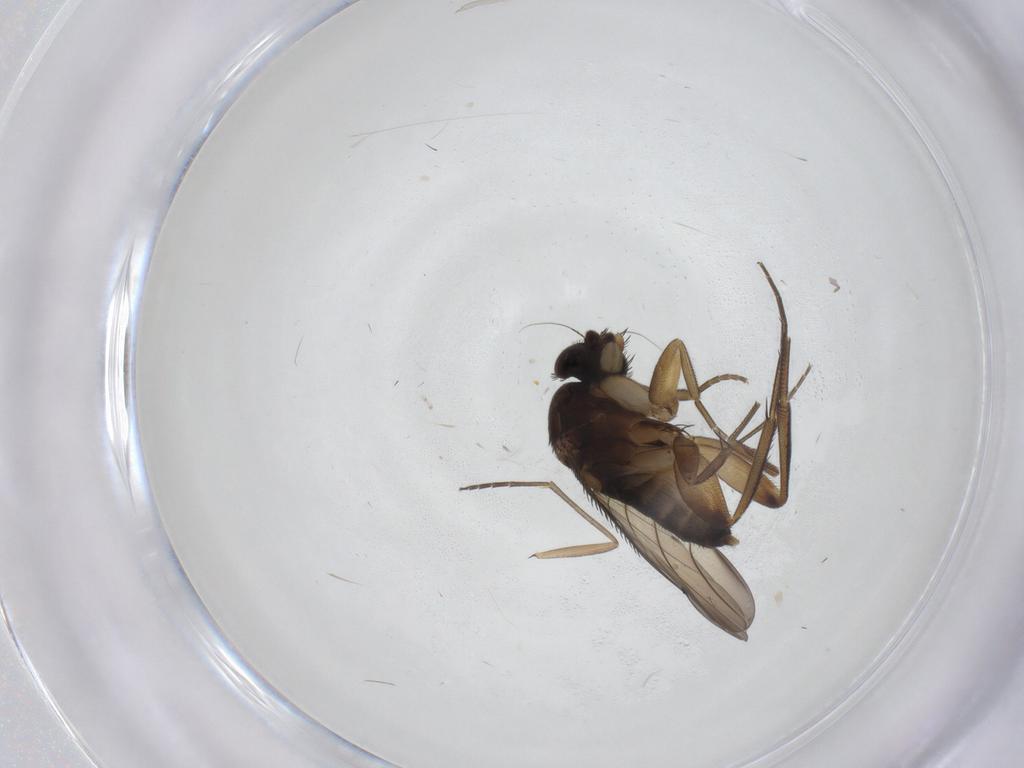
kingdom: Animalia
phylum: Arthropoda
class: Insecta
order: Diptera
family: Phoridae
